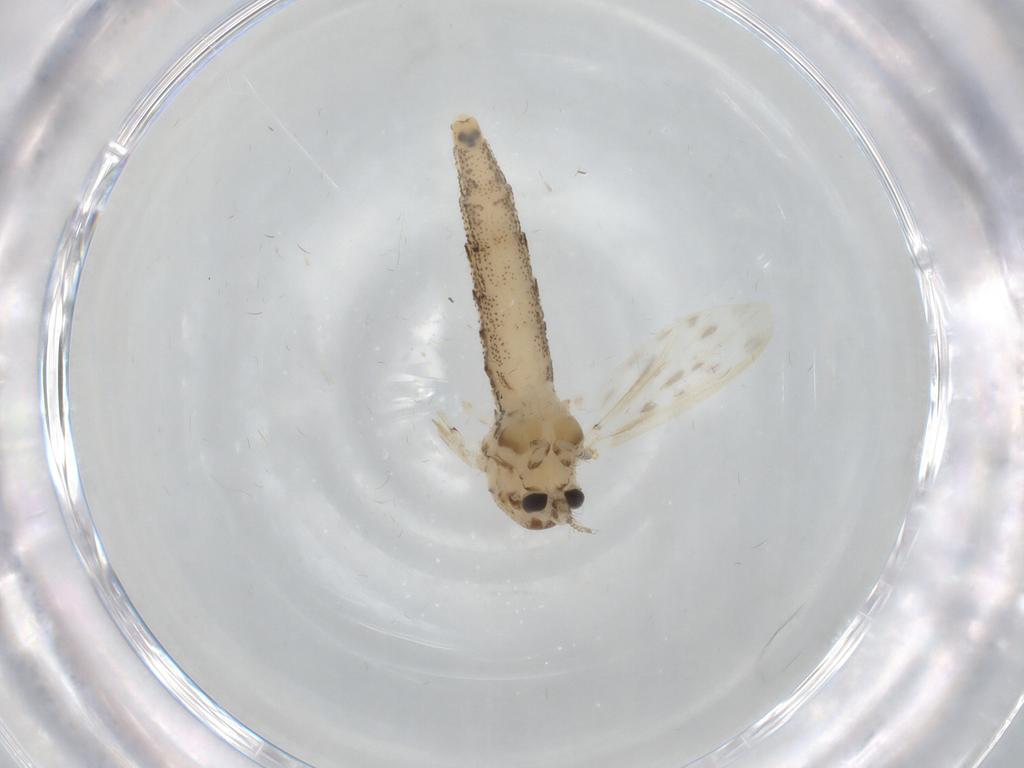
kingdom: Animalia
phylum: Arthropoda
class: Insecta
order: Diptera
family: Chaoboridae
